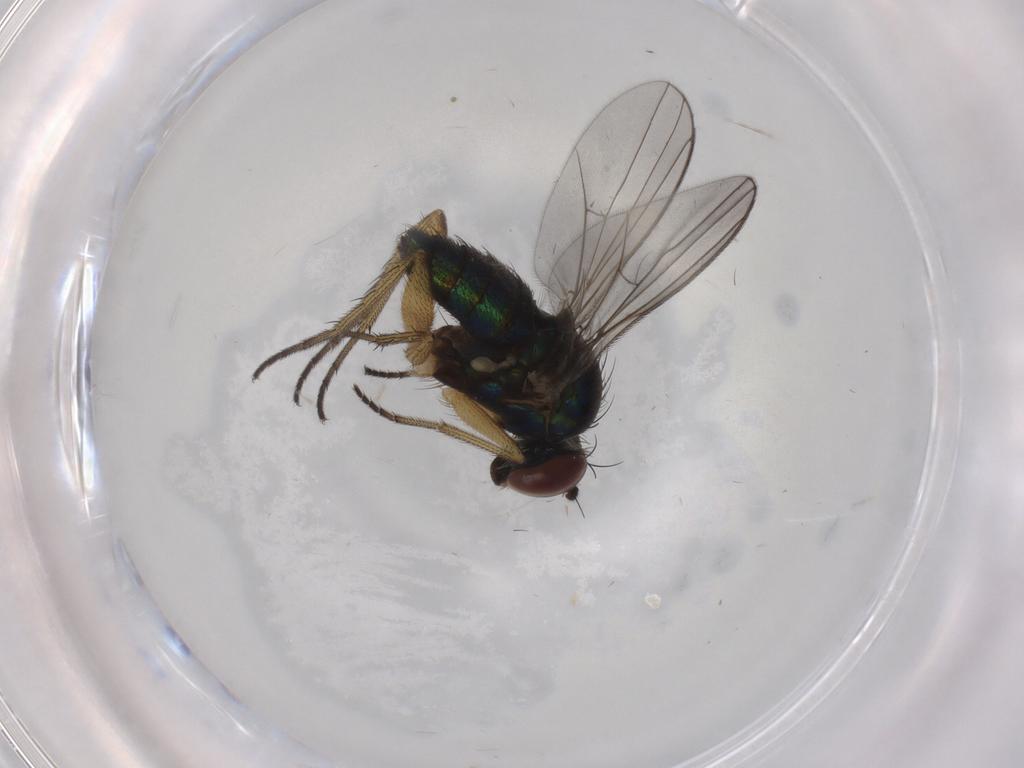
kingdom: Animalia
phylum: Arthropoda
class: Insecta
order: Diptera
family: Dolichopodidae
